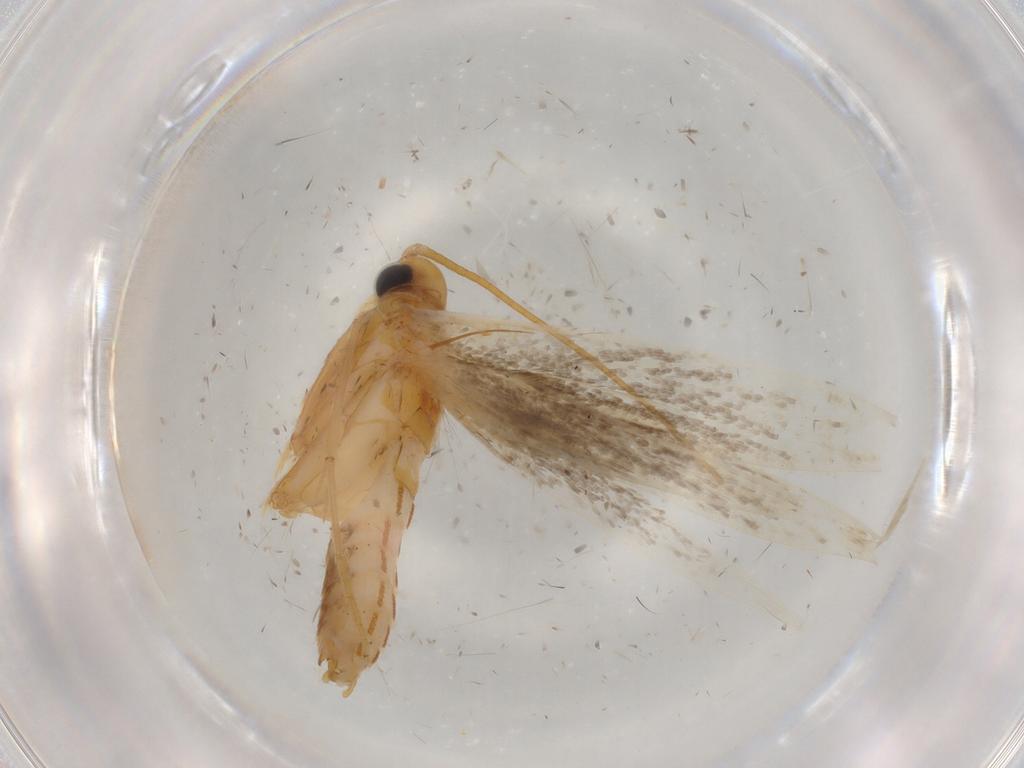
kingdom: Animalia
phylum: Arthropoda
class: Insecta
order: Lepidoptera
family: Coleophoridae
